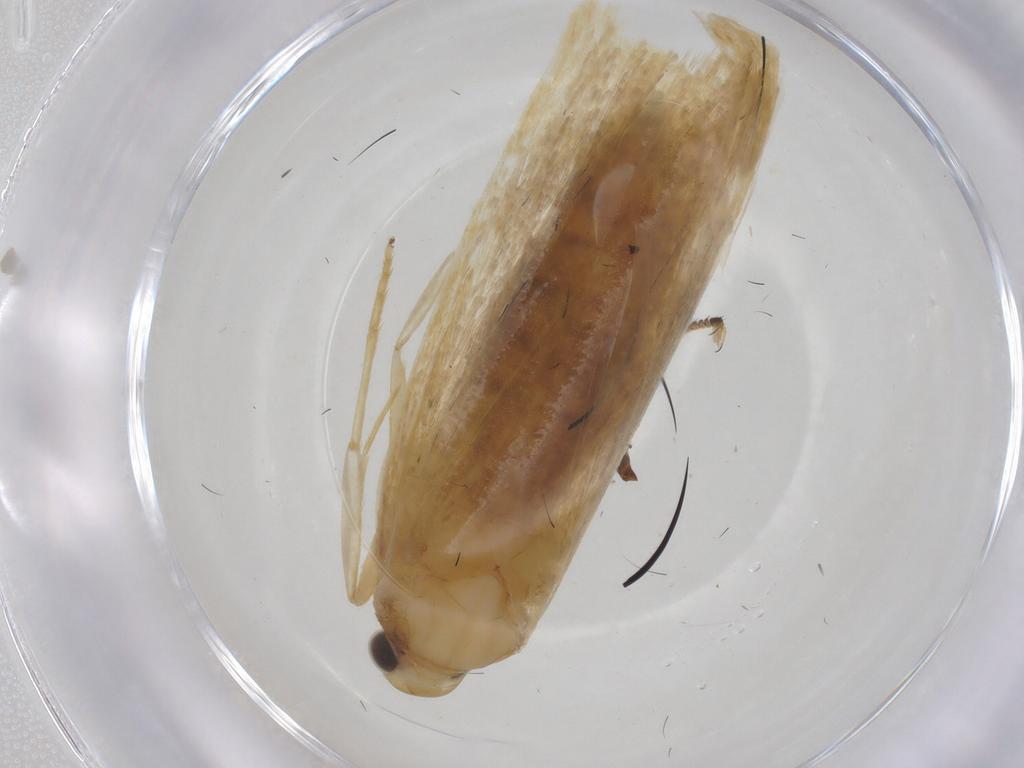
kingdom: Animalia
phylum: Arthropoda
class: Insecta
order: Lepidoptera
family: Lecithoceridae
